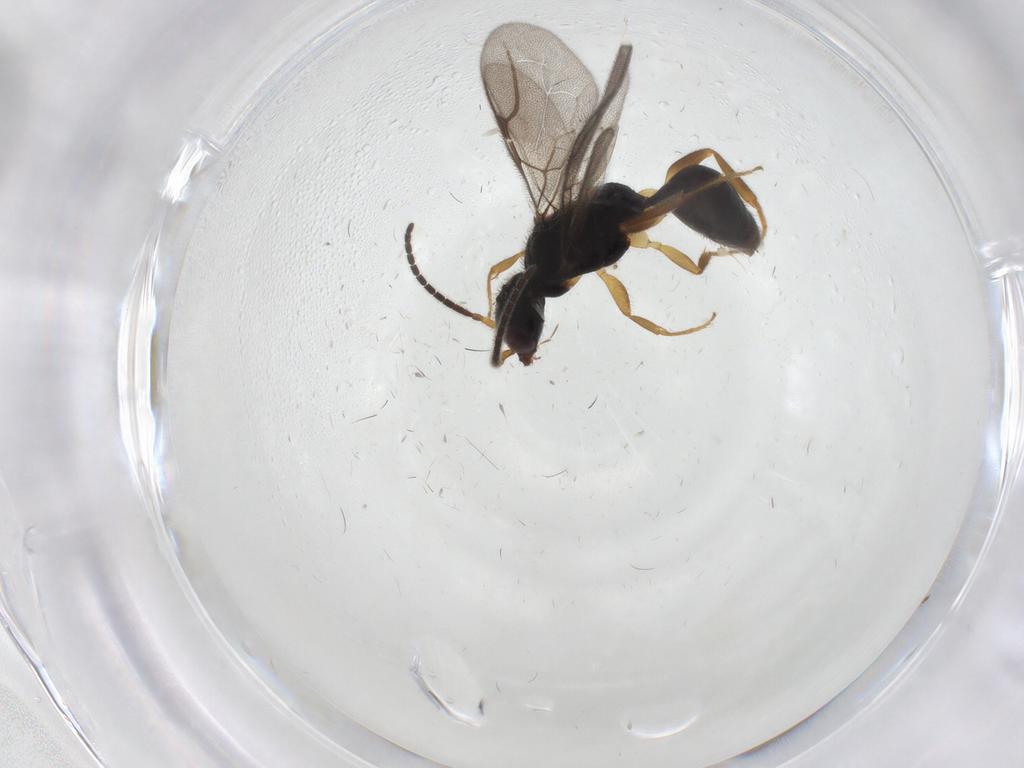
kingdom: Animalia
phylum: Arthropoda
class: Insecta
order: Hymenoptera
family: Bethylidae
